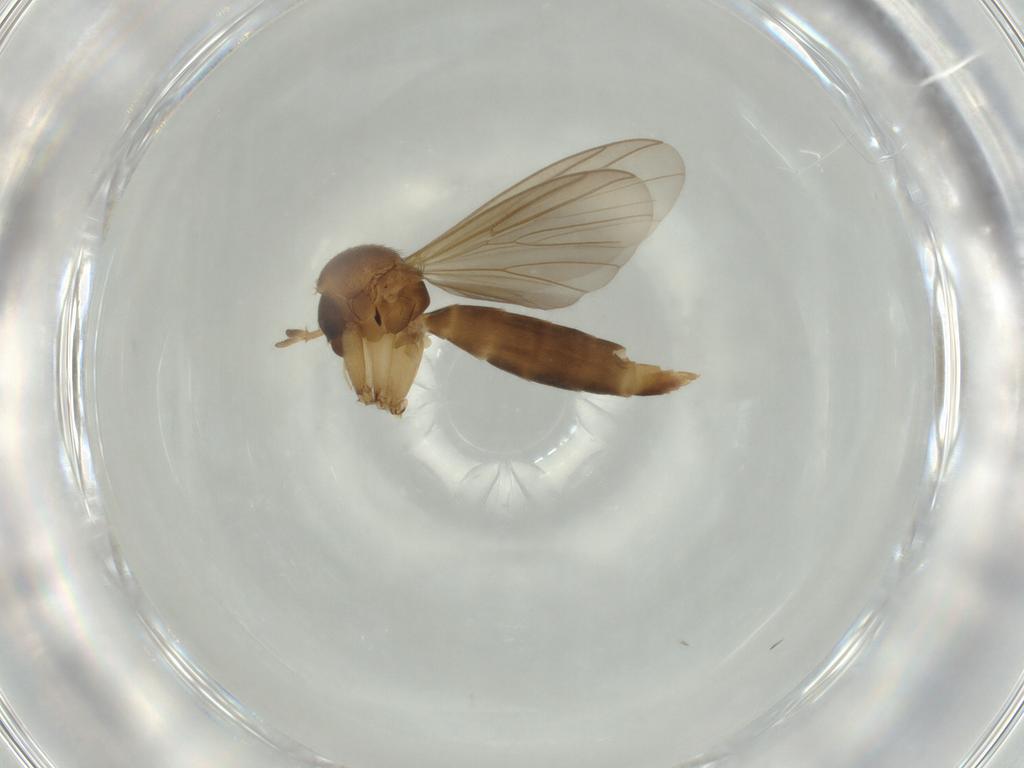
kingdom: Animalia
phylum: Arthropoda
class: Insecta
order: Diptera
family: Mycetophilidae
